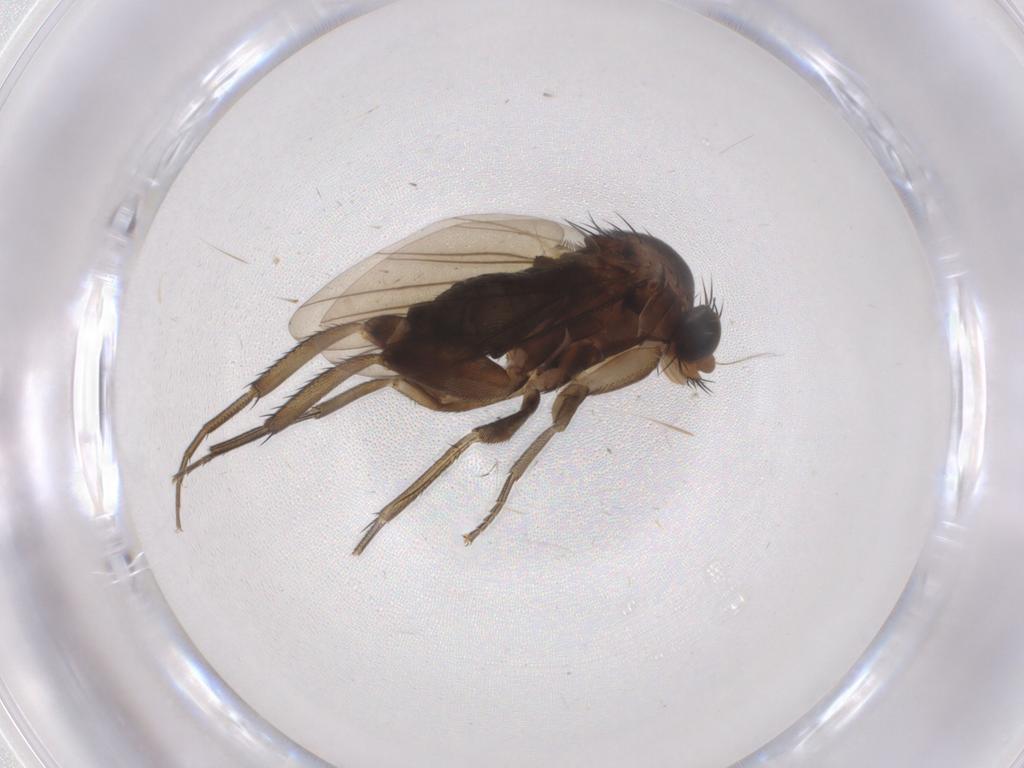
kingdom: Animalia
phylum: Arthropoda
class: Insecta
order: Diptera
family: Phoridae
